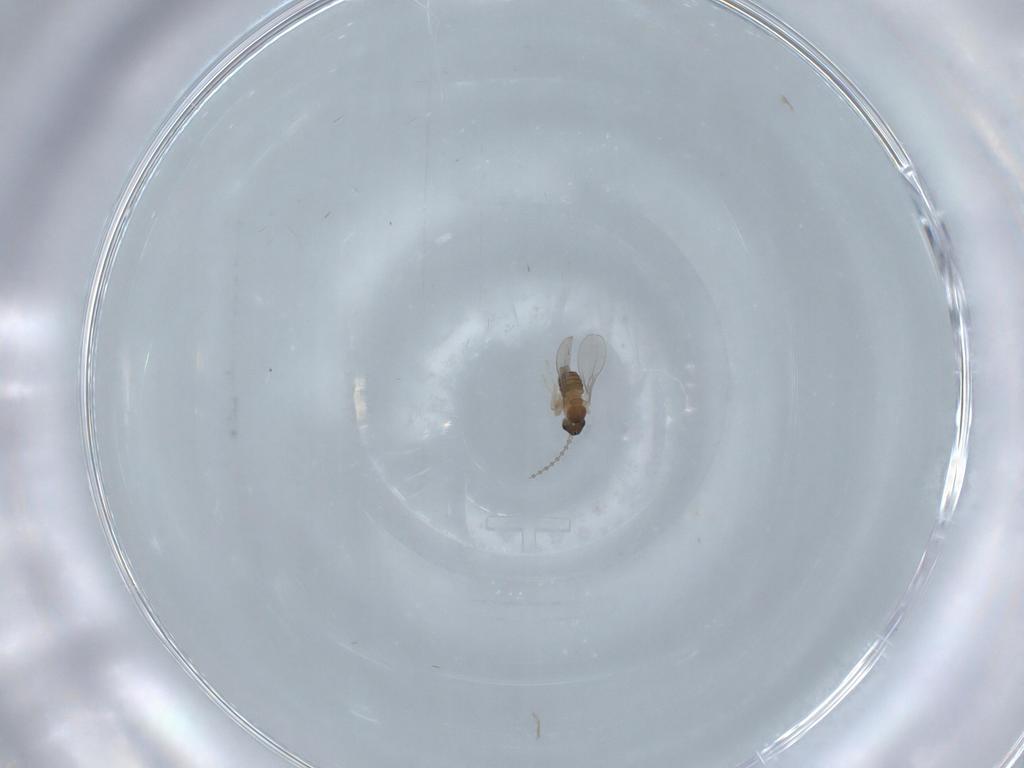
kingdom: Animalia
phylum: Arthropoda
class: Insecta
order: Diptera
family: Cecidomyiidae
